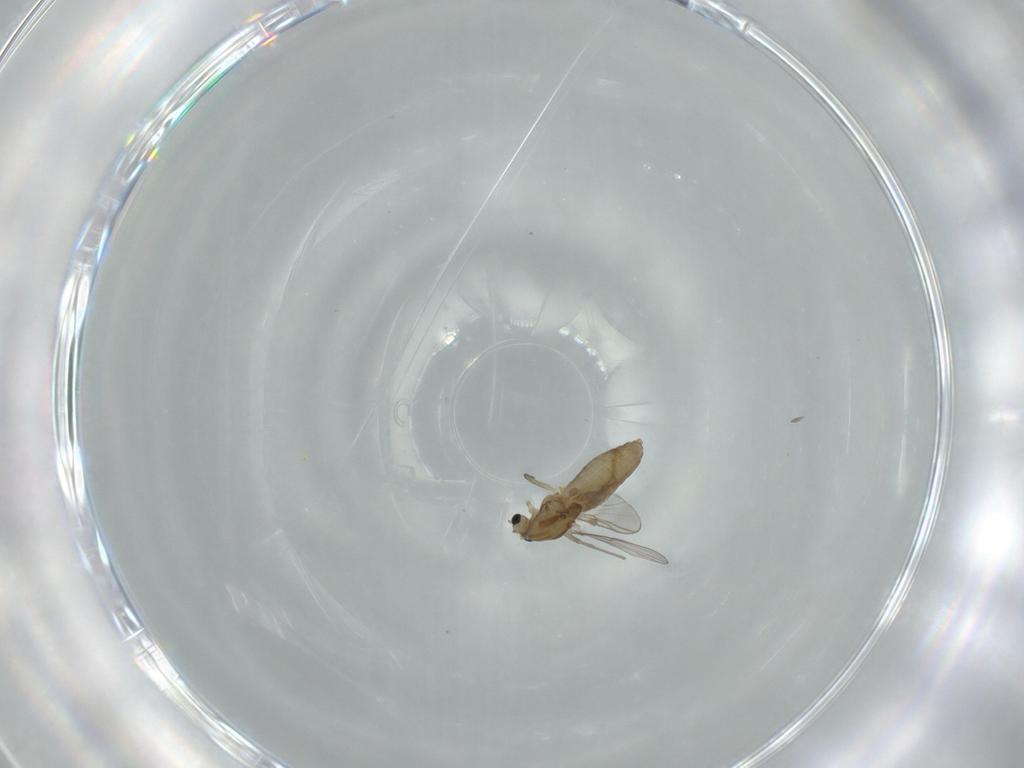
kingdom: Animalia
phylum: Arthropoda
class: Insecta
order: Diptera
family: Chironomidae
